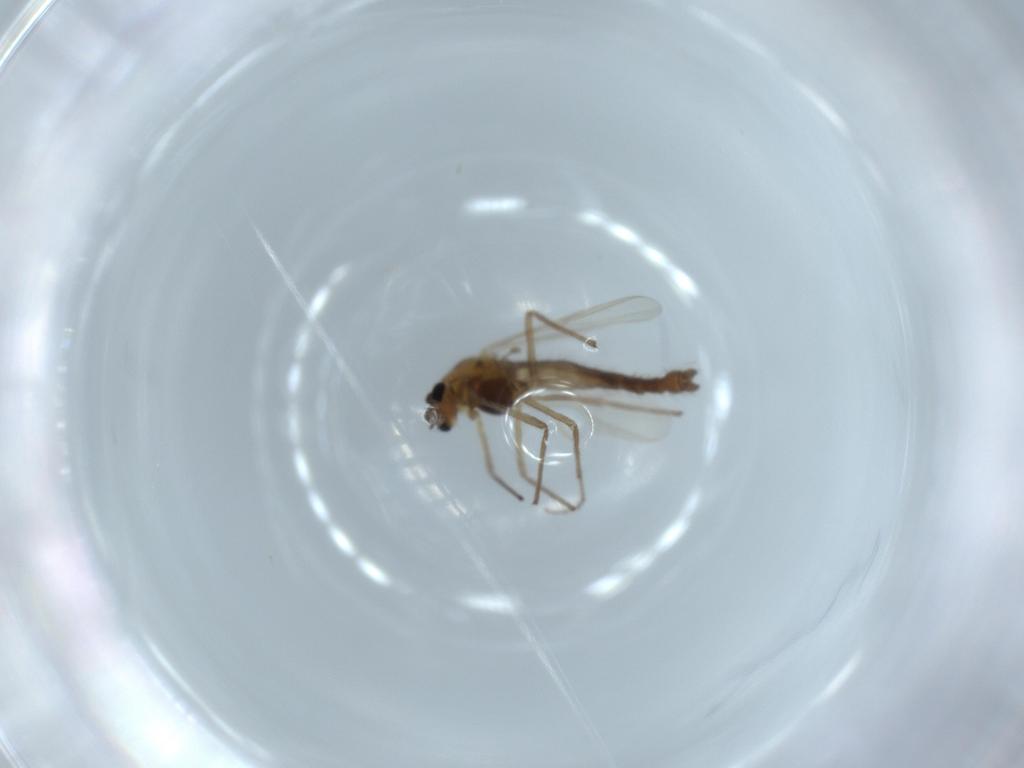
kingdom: Animalia
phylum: Arthropoda
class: Insecta
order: Diptera
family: Chironomidae
